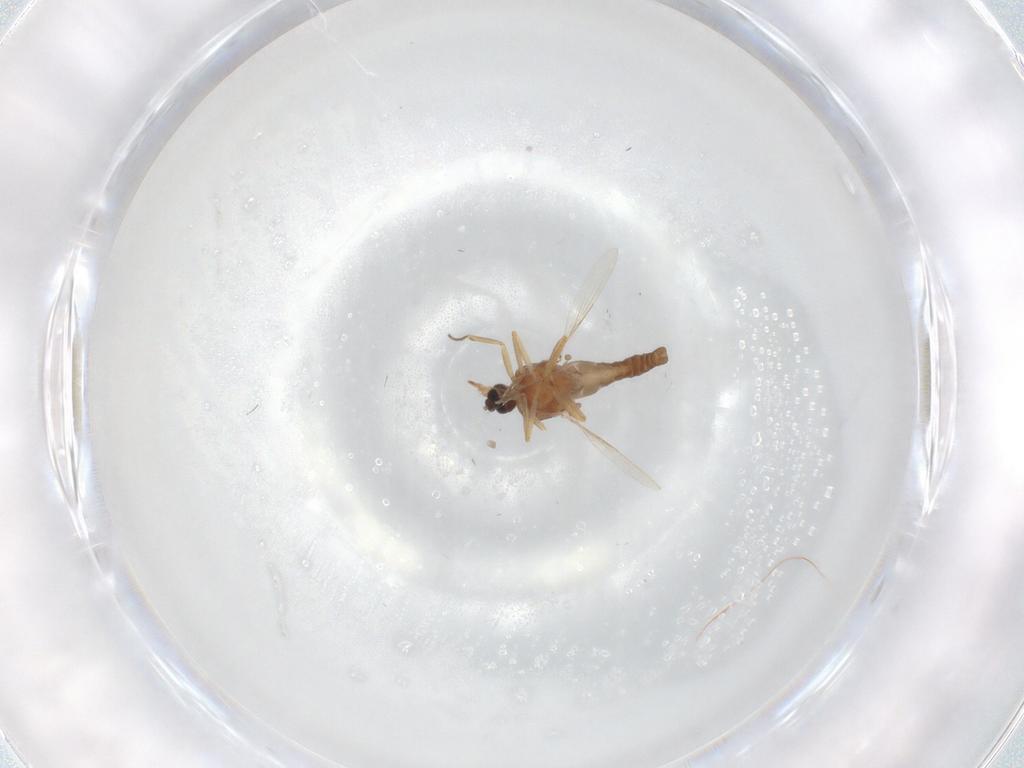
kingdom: Animalia
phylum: Arthropoda
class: Insecta
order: Diptera
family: Ceratopogonidae
